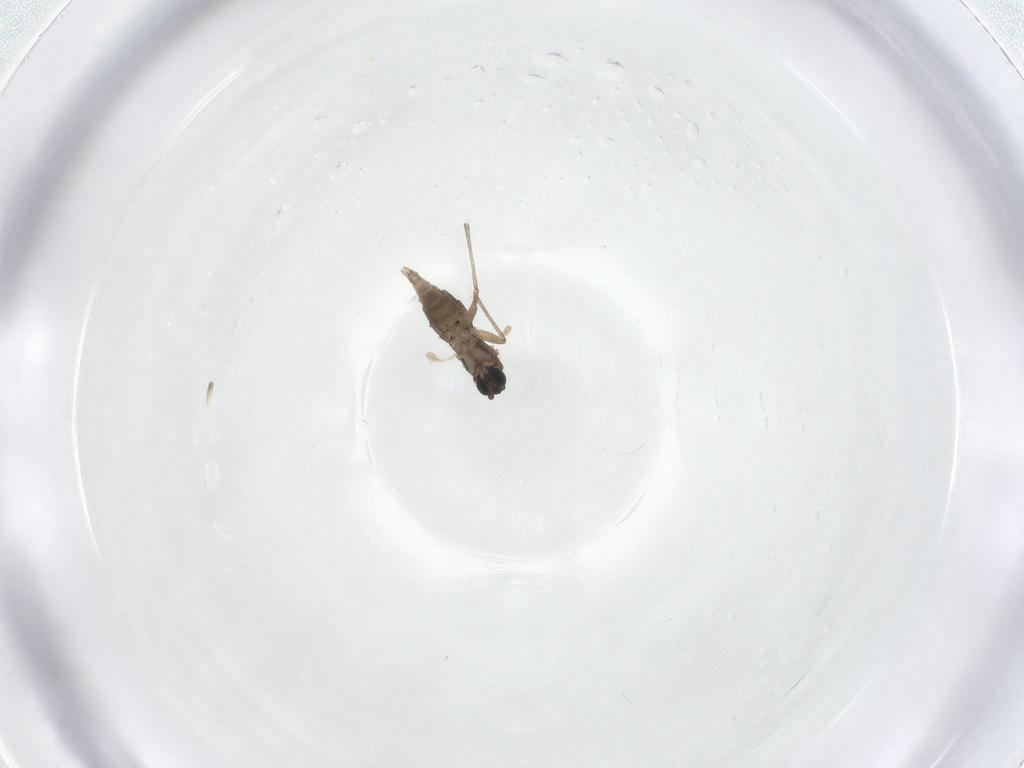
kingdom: Animalia
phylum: Arthropoda
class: Insecta
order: Diptera
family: Sciaridae
